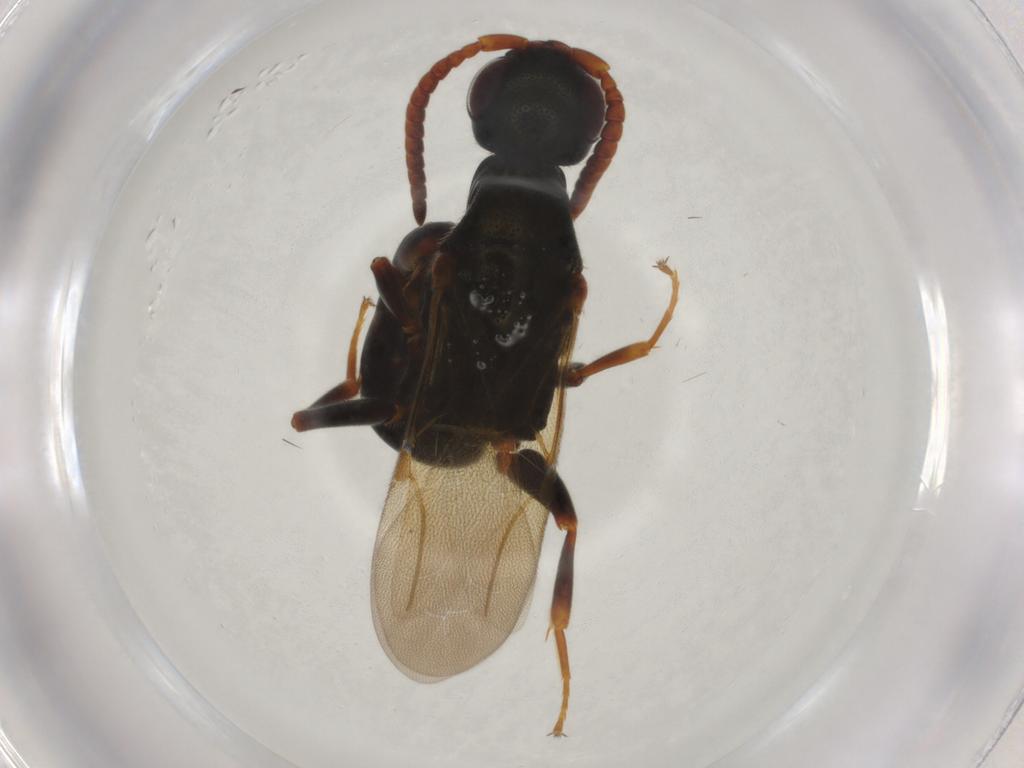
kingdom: Animalia
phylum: Arthropoda
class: Insecta
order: Hymenoptera
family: Bethylidae
